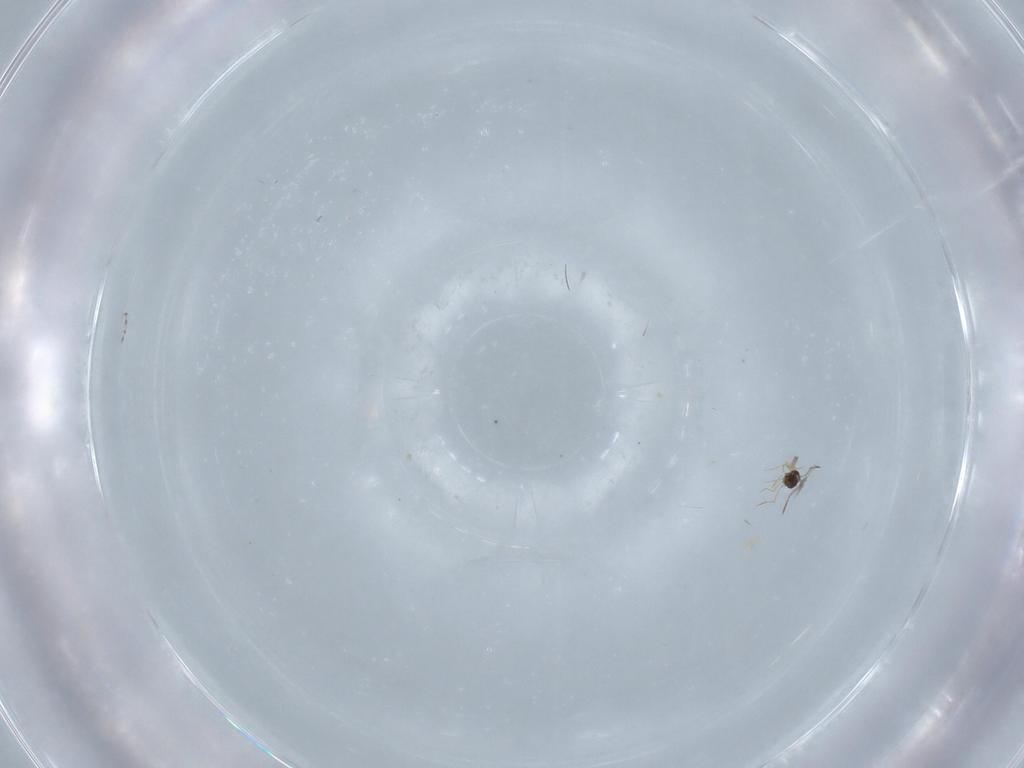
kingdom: Animalia
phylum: Arthropoda
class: Insecta
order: Hymenoptera
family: Mymarommatidae
